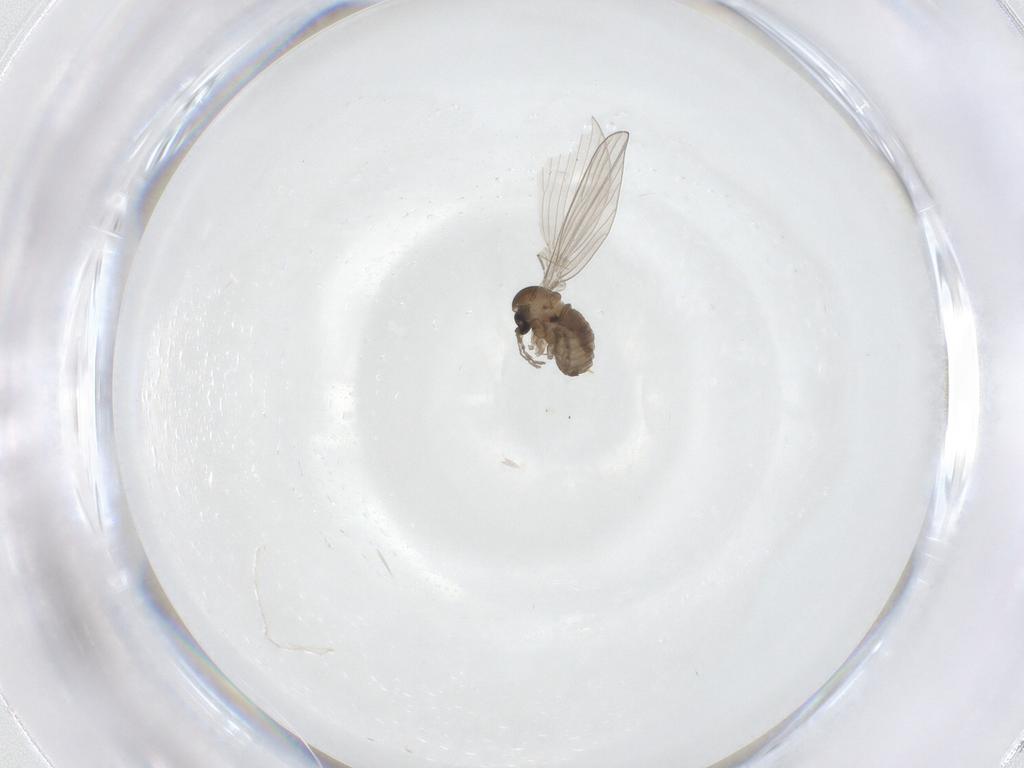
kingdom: Animalia
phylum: Arthropoda
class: Insecta
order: Diptera
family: Psychodidae
